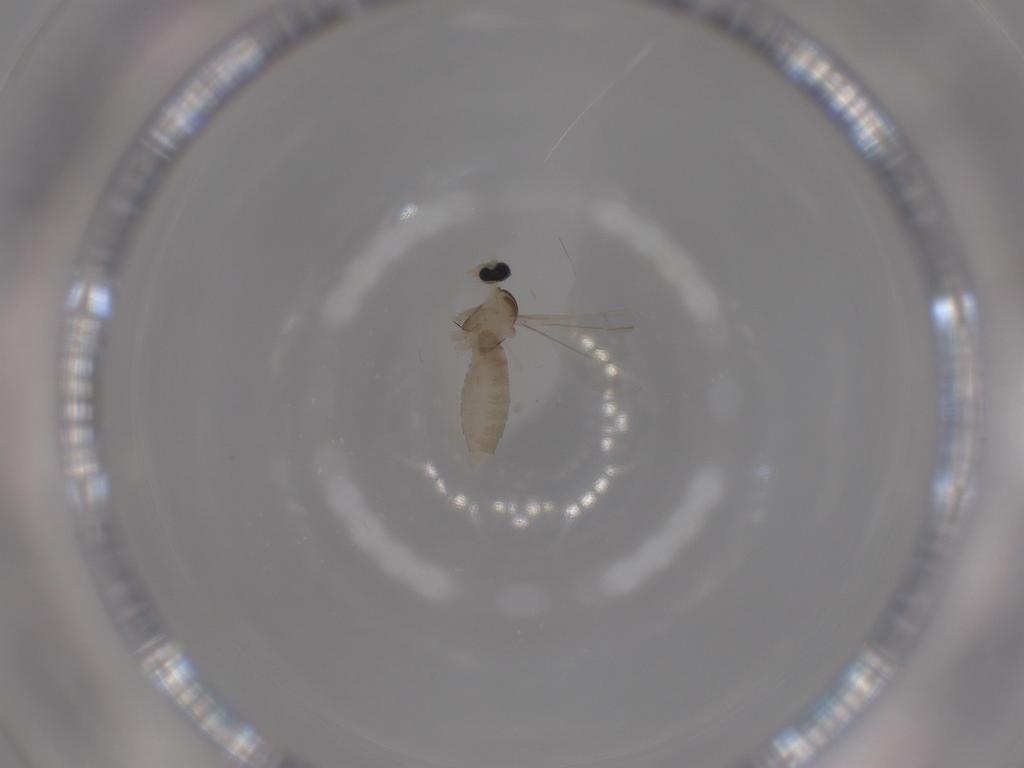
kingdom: Animalia
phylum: Arthropoda
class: Insecta
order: Diptera
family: Cecidomyiidae
